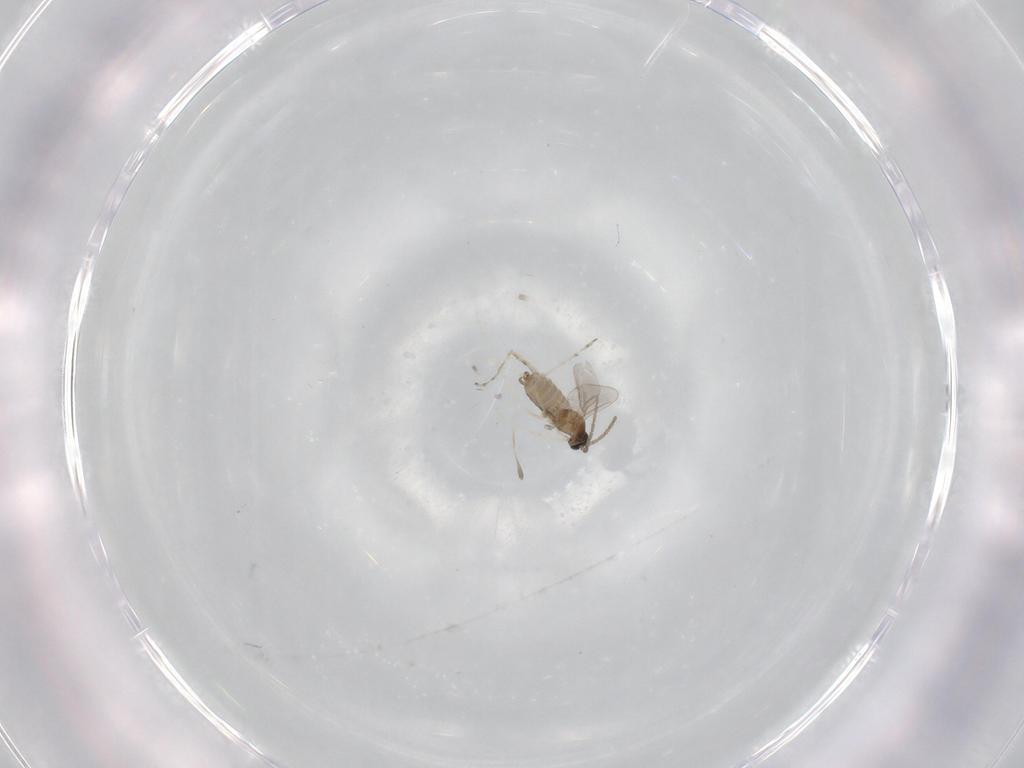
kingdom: Animalia
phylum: Arthropoda
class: Insecta
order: Diptera
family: Cecidomyiidae
